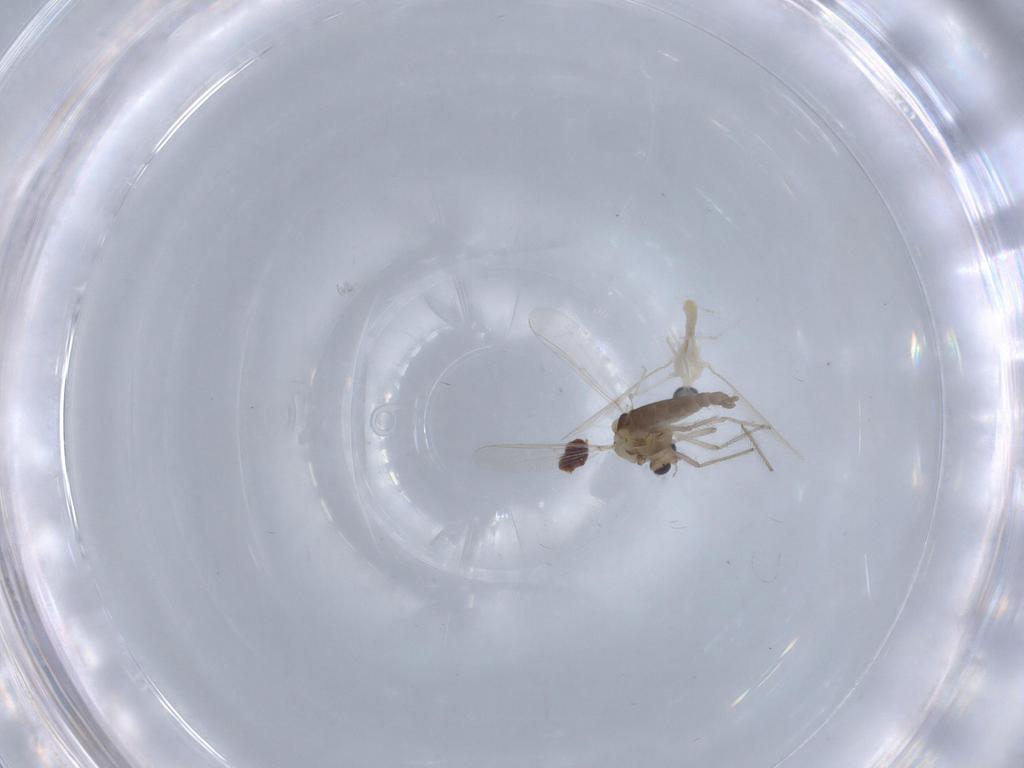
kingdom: Animalia
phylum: Arthropoda
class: Insecta
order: Diptera
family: Chironomidae
